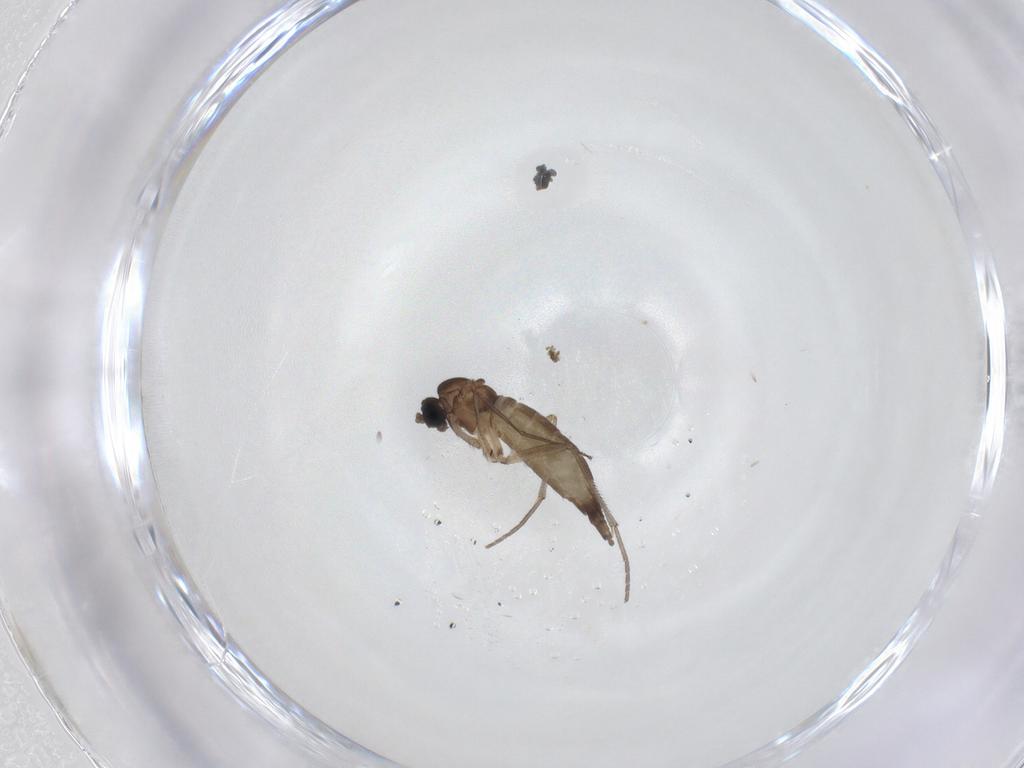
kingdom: Animalia
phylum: Arthropoda
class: Insecta
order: Diptera
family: Sciaridae
